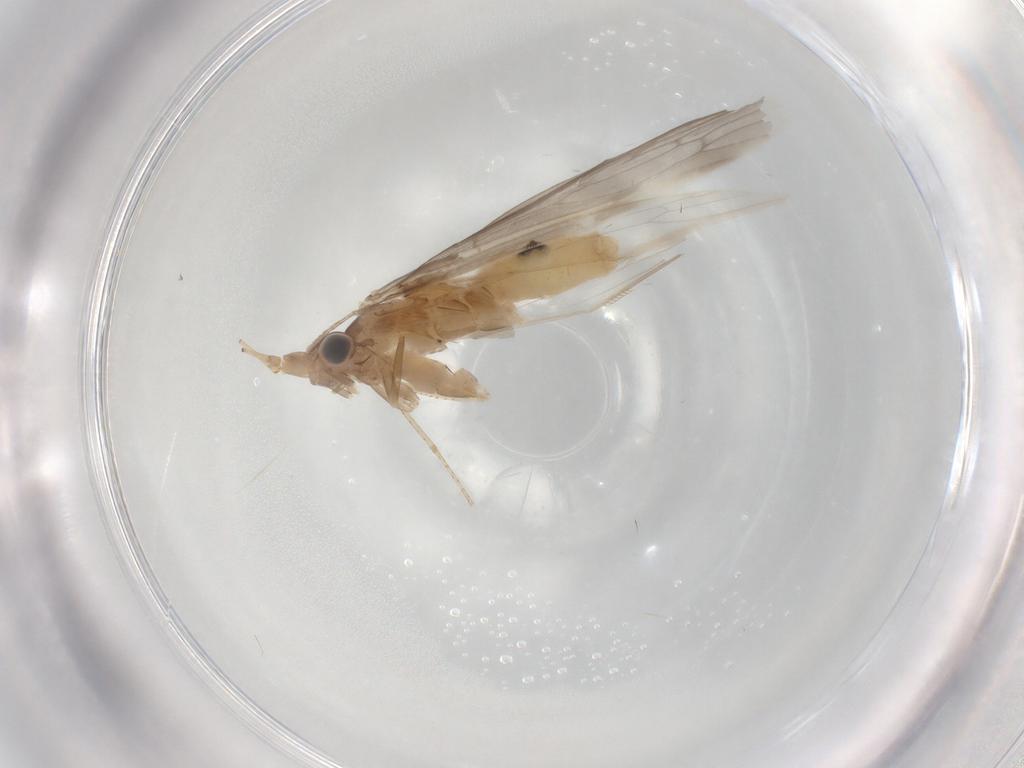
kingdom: Animalia
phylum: Arthropoda
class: Insecta
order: Trichoptera
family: Leptoceridae
